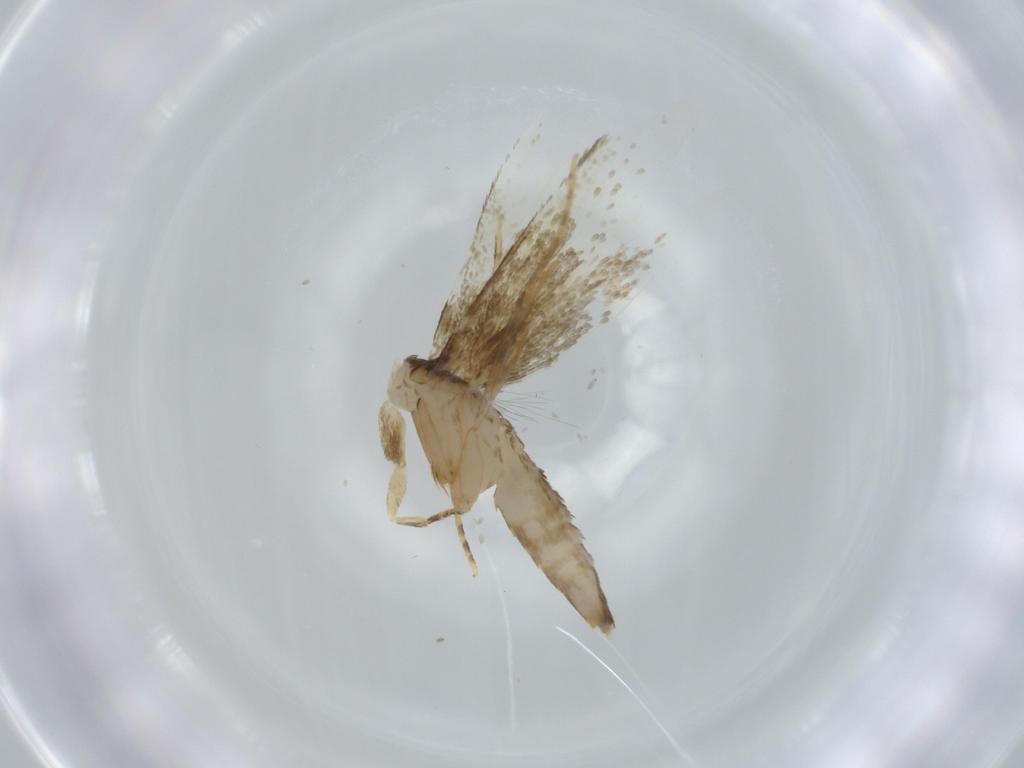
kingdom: Animalia
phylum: Arthropoda
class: Insecta
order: Lepidoptera
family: Tineidae
